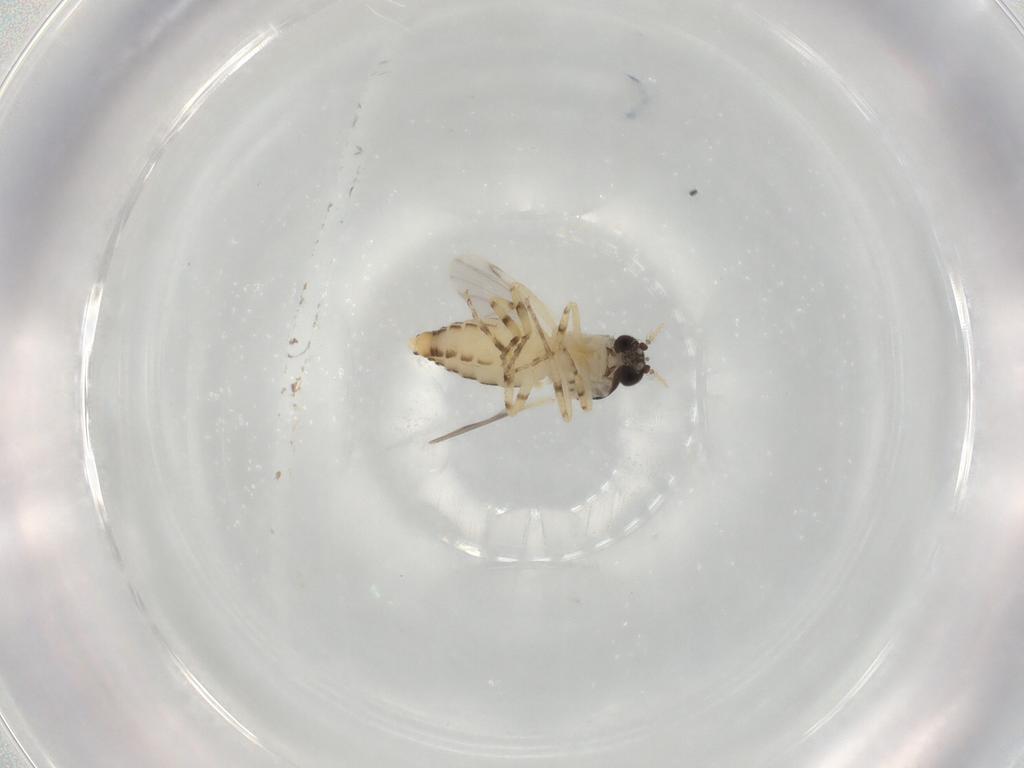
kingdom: Animalia
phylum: Arthropoda
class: Insecta
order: Diptera
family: Ceratopogonidae
